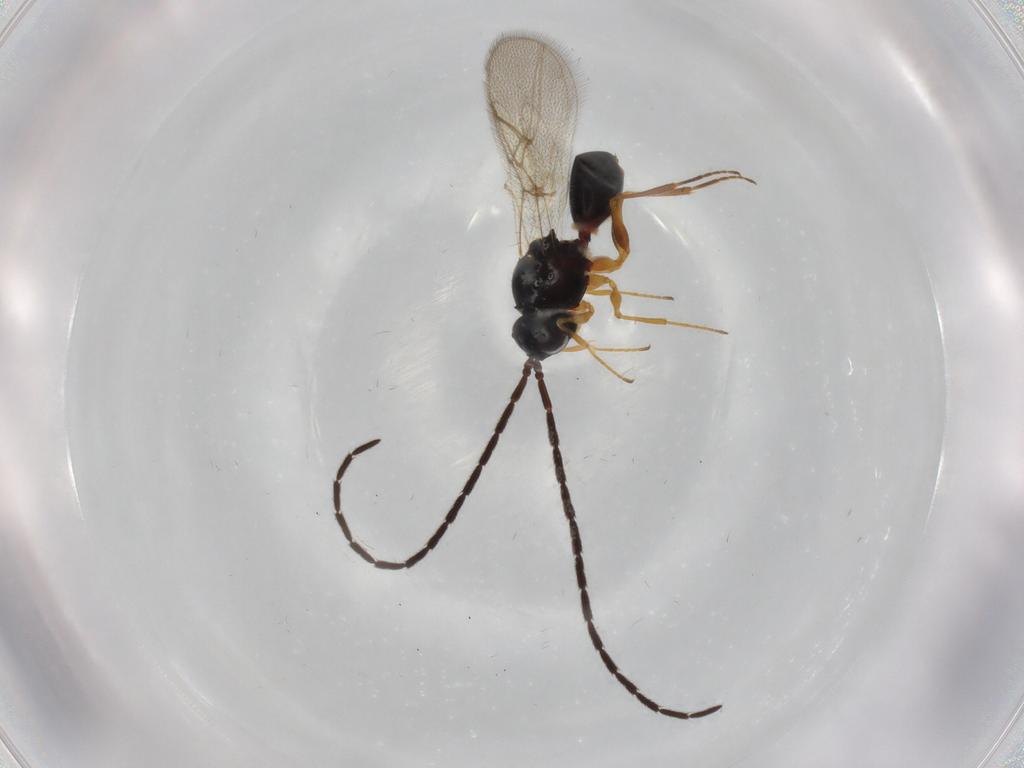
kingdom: Animalia
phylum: Arthropoda
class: Insecta
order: Hymenoptera
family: Figitidae
